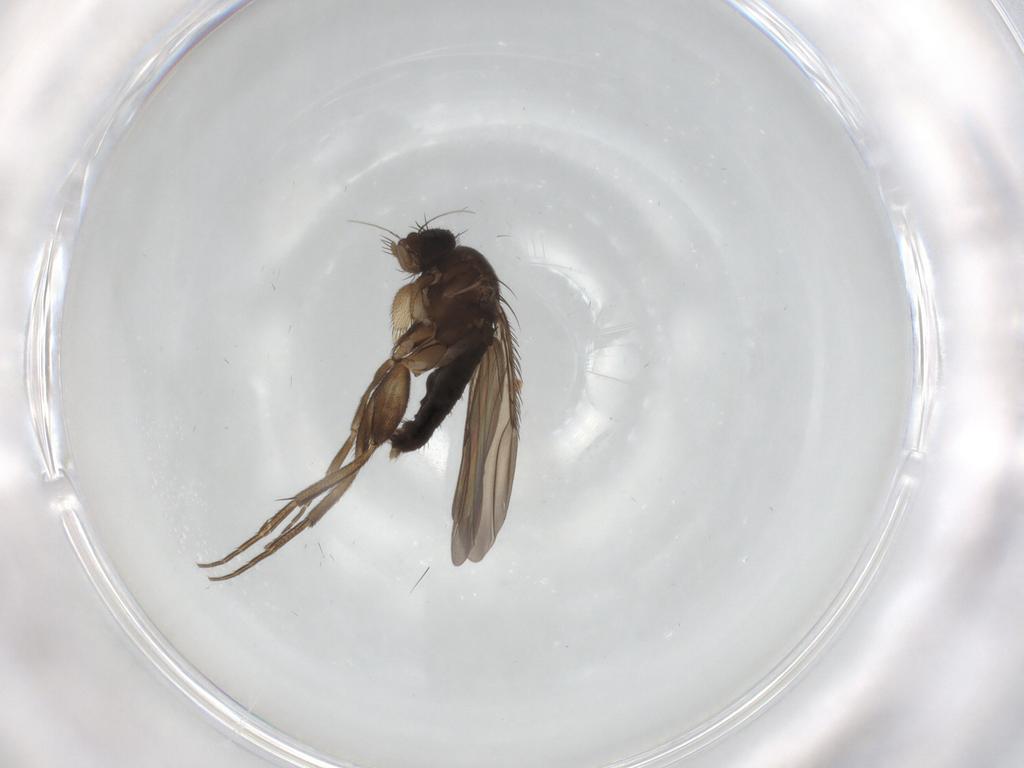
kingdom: Animalia
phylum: Arthropoda
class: Insecta
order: Diptera
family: Phoridae
